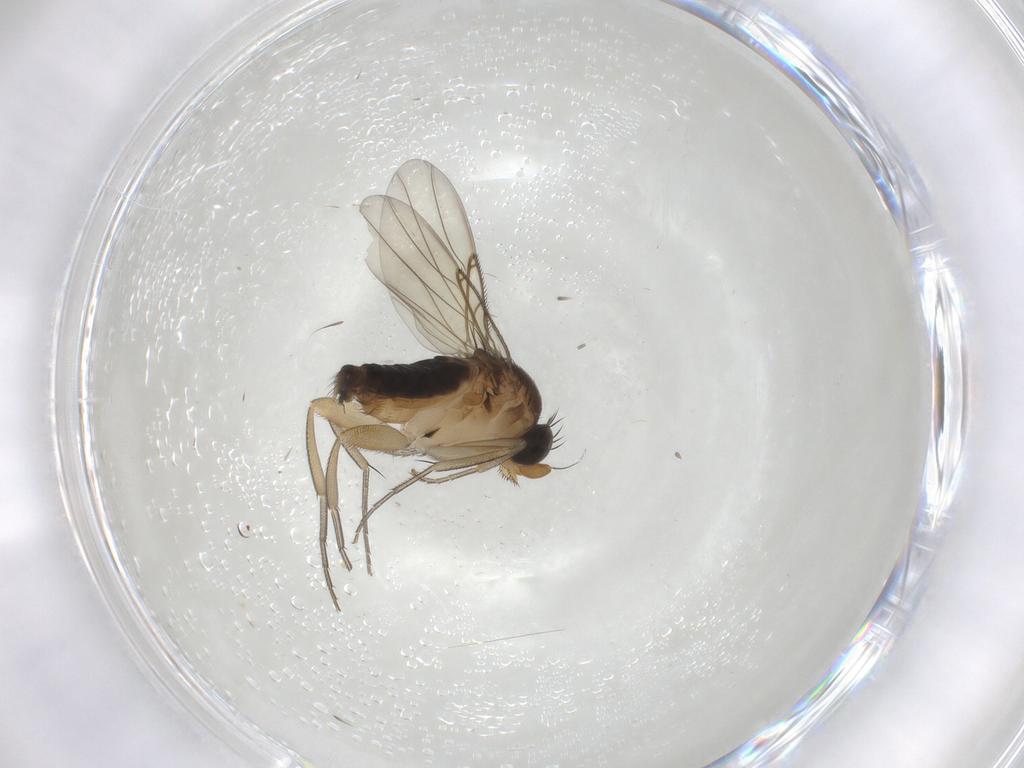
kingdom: Animalia
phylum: Arthropoda
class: Insecta
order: Diptera
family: Phoridae
